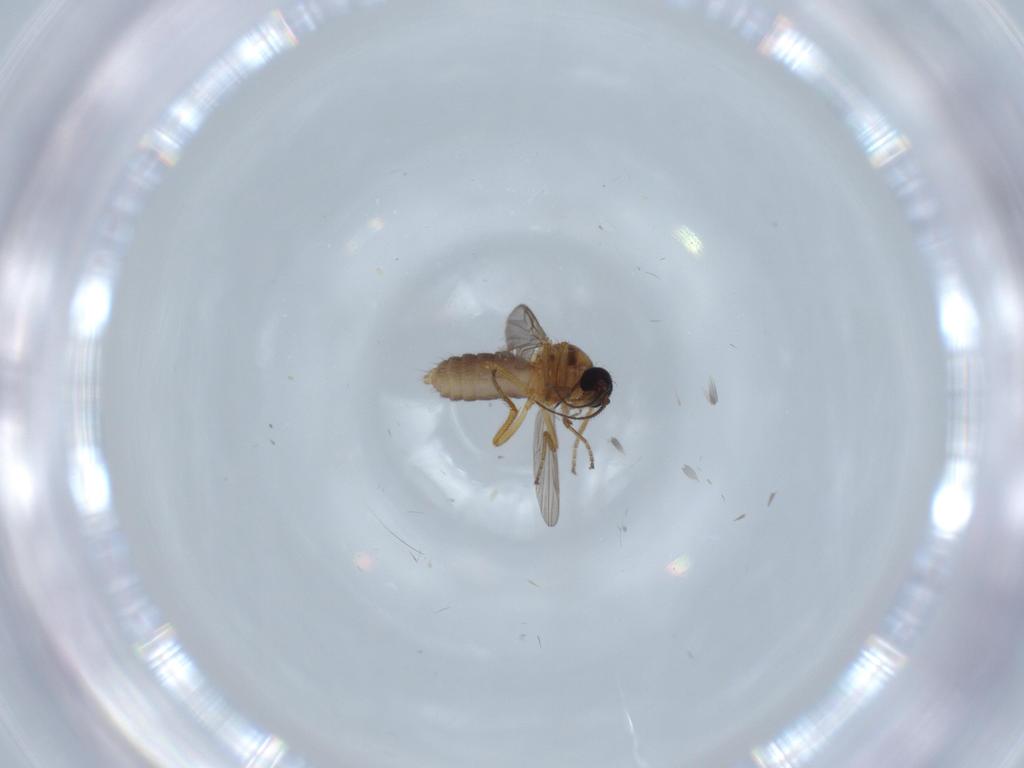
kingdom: Animalia
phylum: Arthropoda
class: Insecta
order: Diptera
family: Ceratopogonidae
